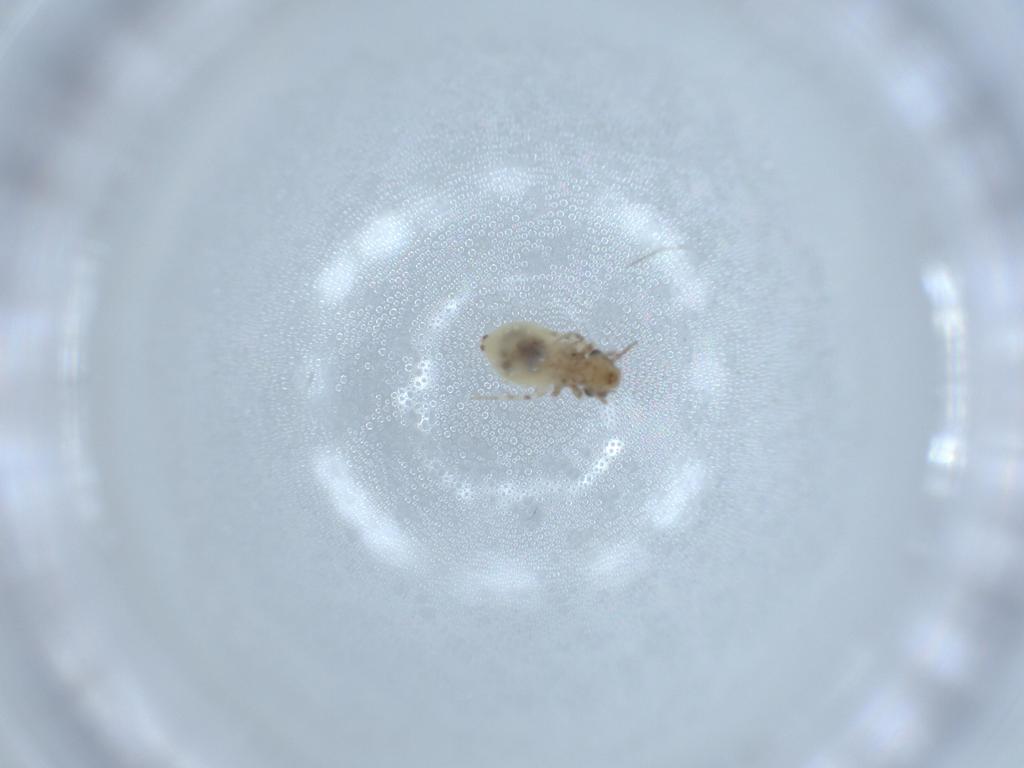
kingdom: Animalia
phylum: Arthropoda
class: Insecta
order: Psocodea
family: Lepidopsocidae
